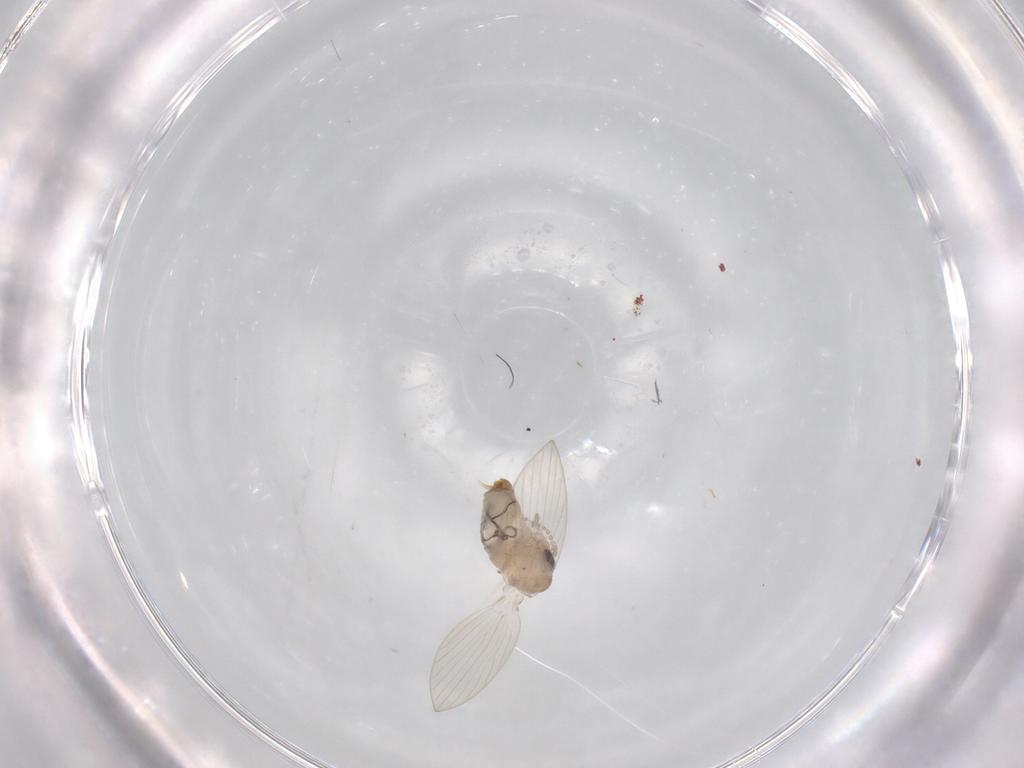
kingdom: Animalia
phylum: Arthropoda
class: Insecta
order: Diptera
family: Psychodidae
